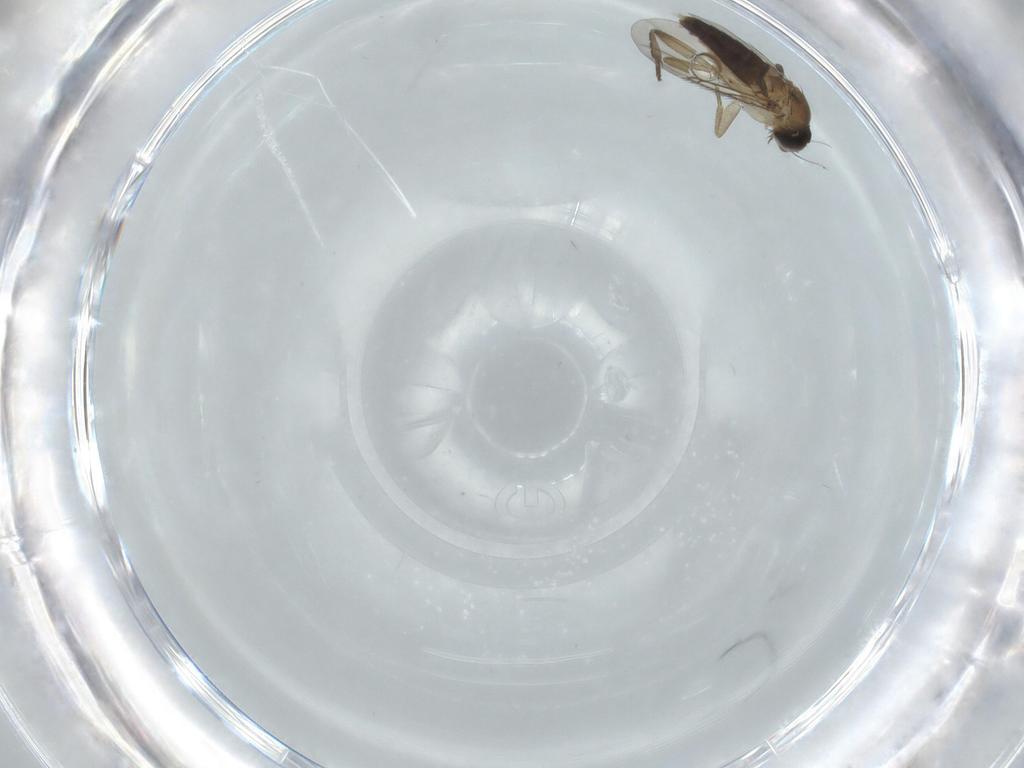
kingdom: Animalia
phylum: Arthropoda
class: Insecta
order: Diptera
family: Phoridae
